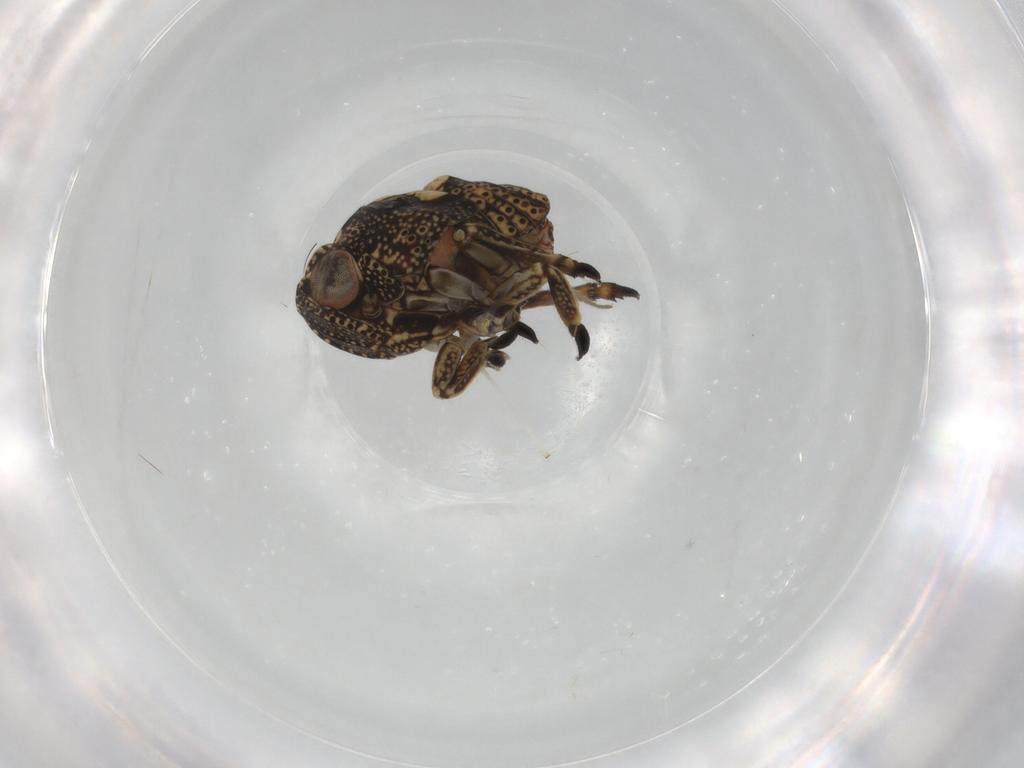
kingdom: Animalia
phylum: Arthropoda
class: Insecta
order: Hemiptera
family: Fulgoroidea_incertae_sedis
